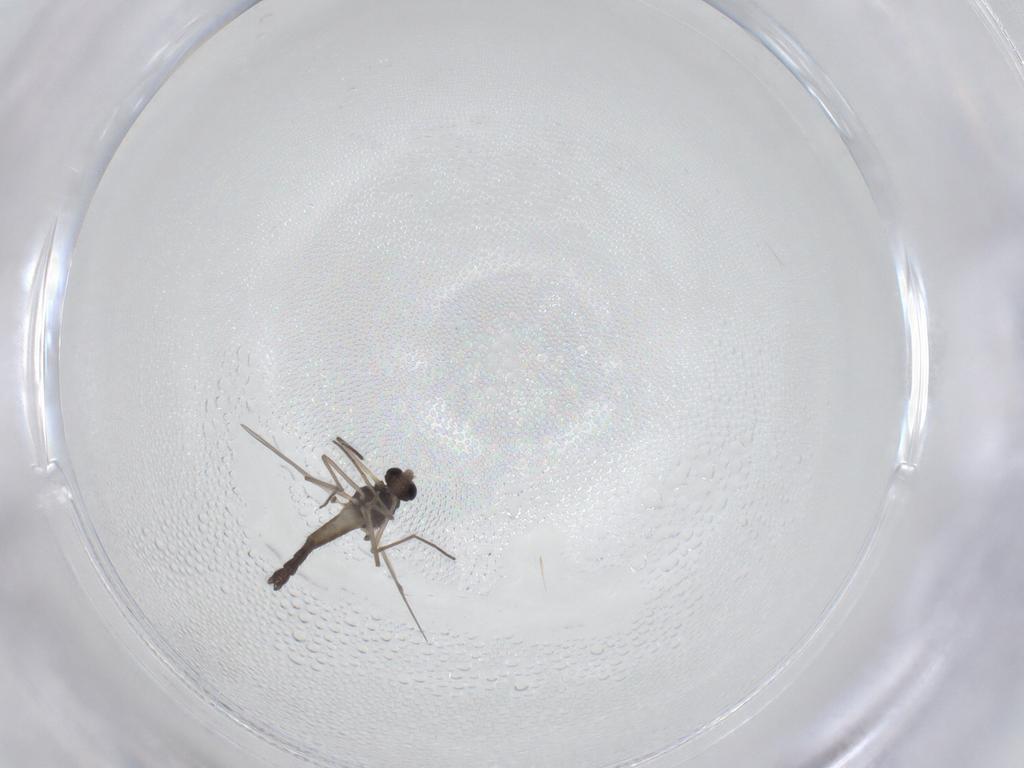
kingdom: Animalia
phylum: Arthropoda
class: Insecta
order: Diptera
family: Chironomidae
